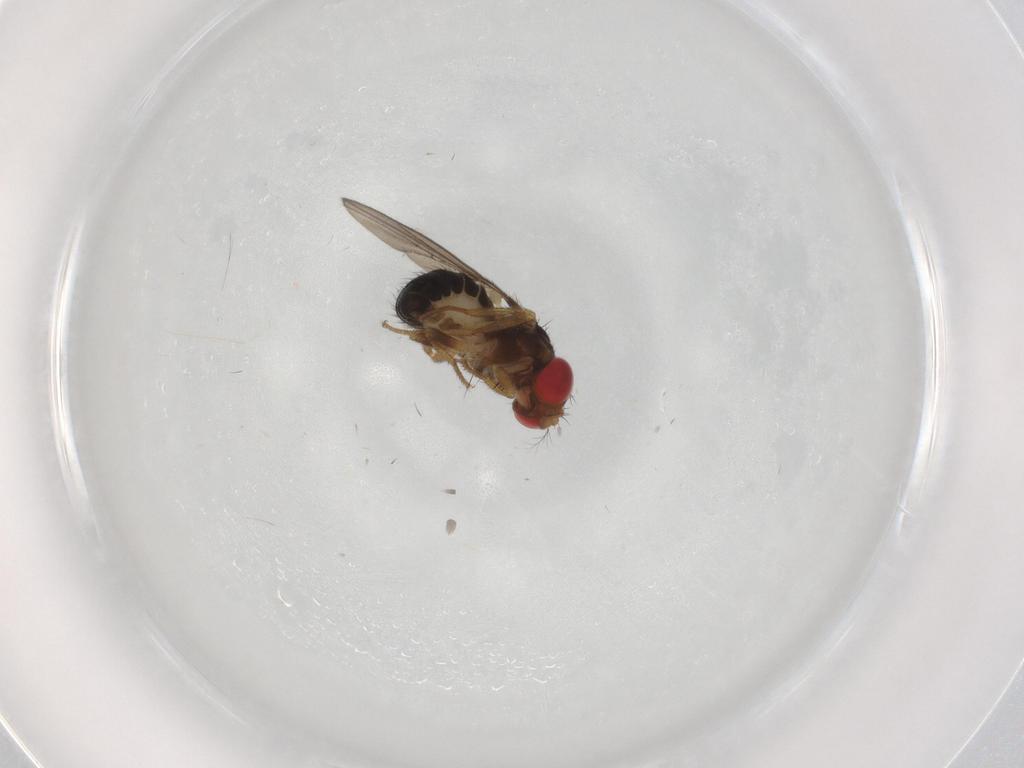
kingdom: Animalia
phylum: Arthropoda
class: Insecta
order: Diptera
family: Drosophilidae
